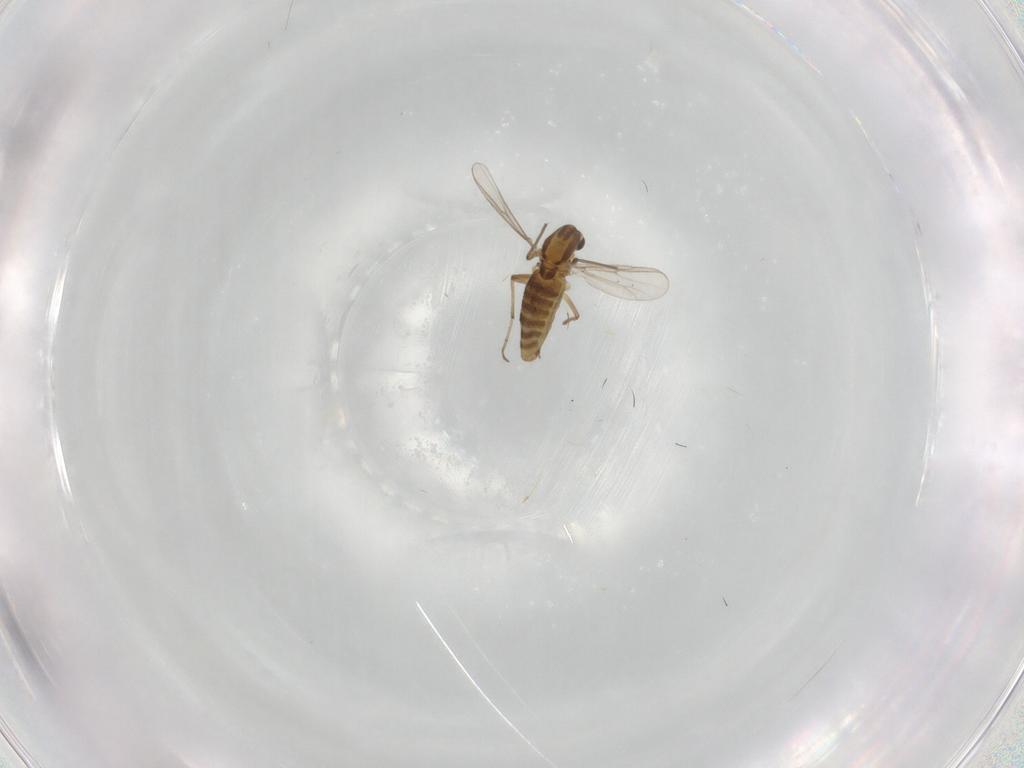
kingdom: Animalia
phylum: Arthropoda
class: Insecta
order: Diptera
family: Chironomidae
